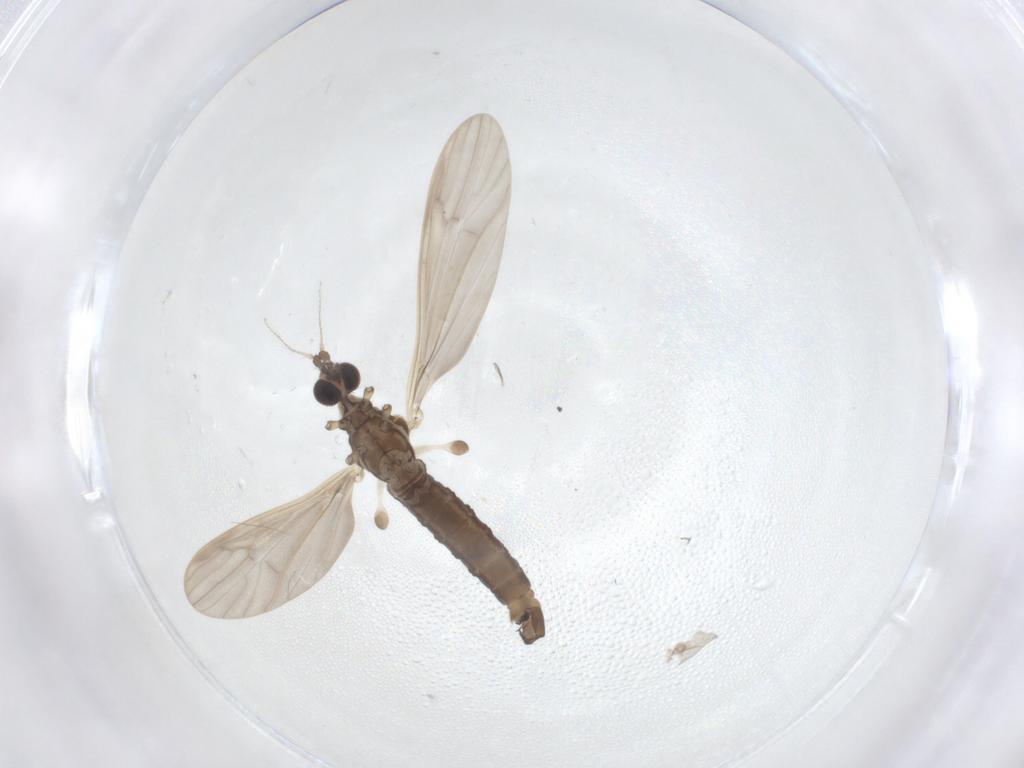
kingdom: Animalia
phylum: Arthropoda
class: Insecta
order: Diptera
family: Limoniidae
